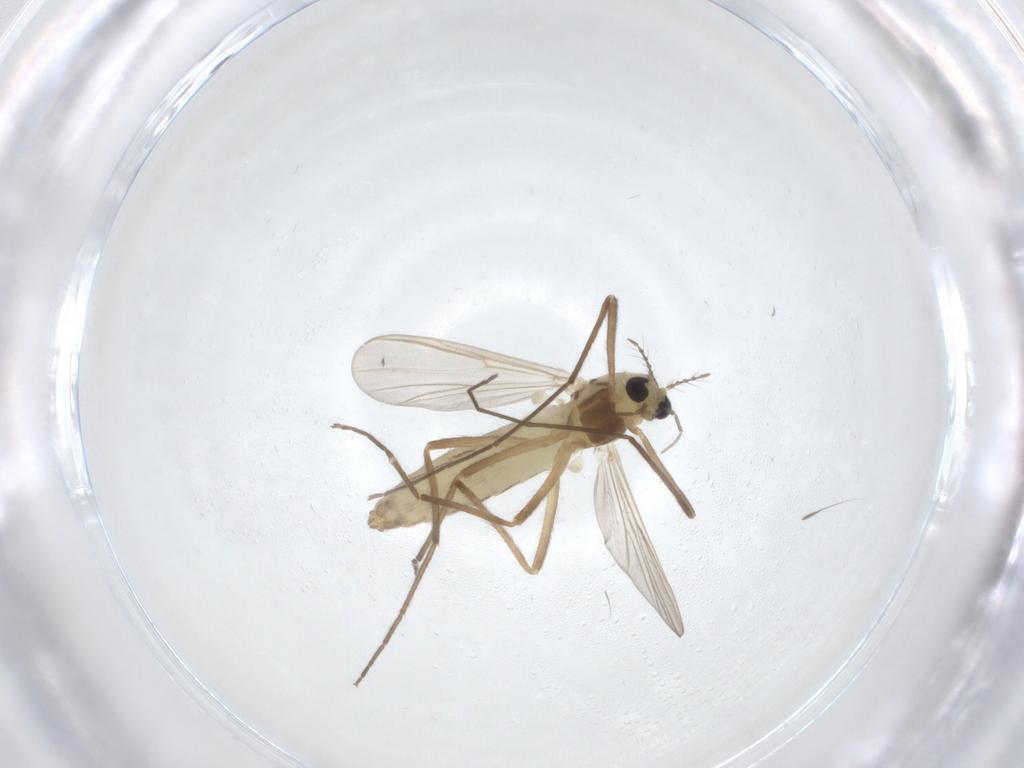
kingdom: Animalia
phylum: Arthropoda
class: Insecta
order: Diptera
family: Chironomidae
